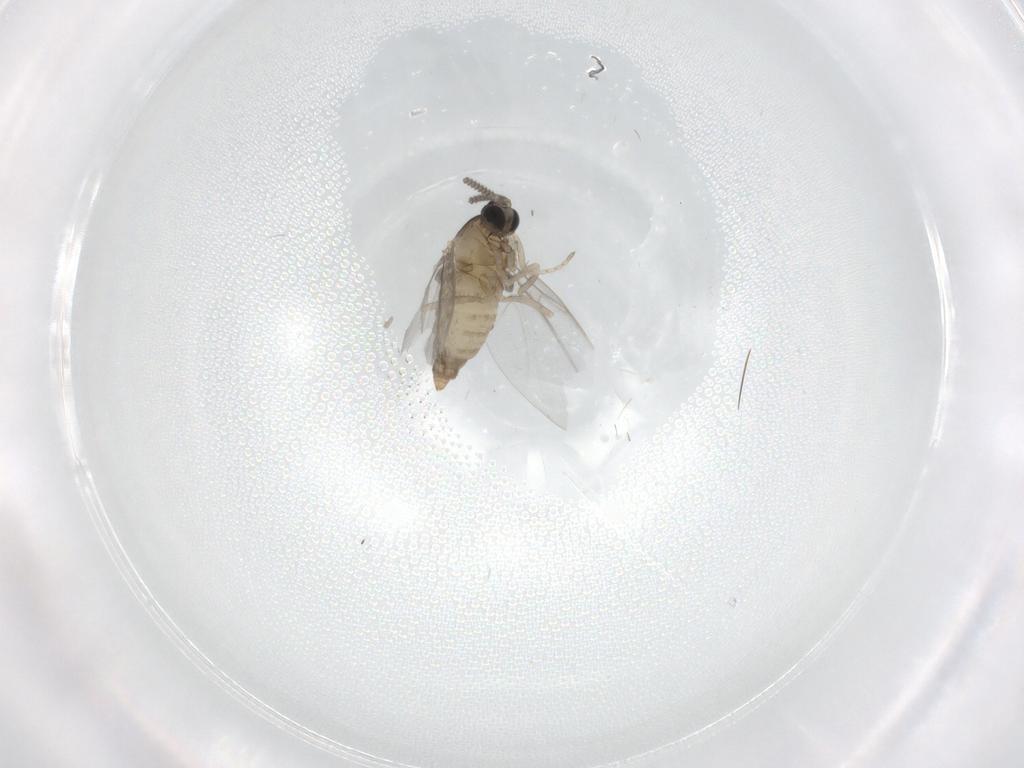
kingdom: Animalia
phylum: Arthropoda
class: Insecta
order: Diptera
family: Cecidomyiidae
